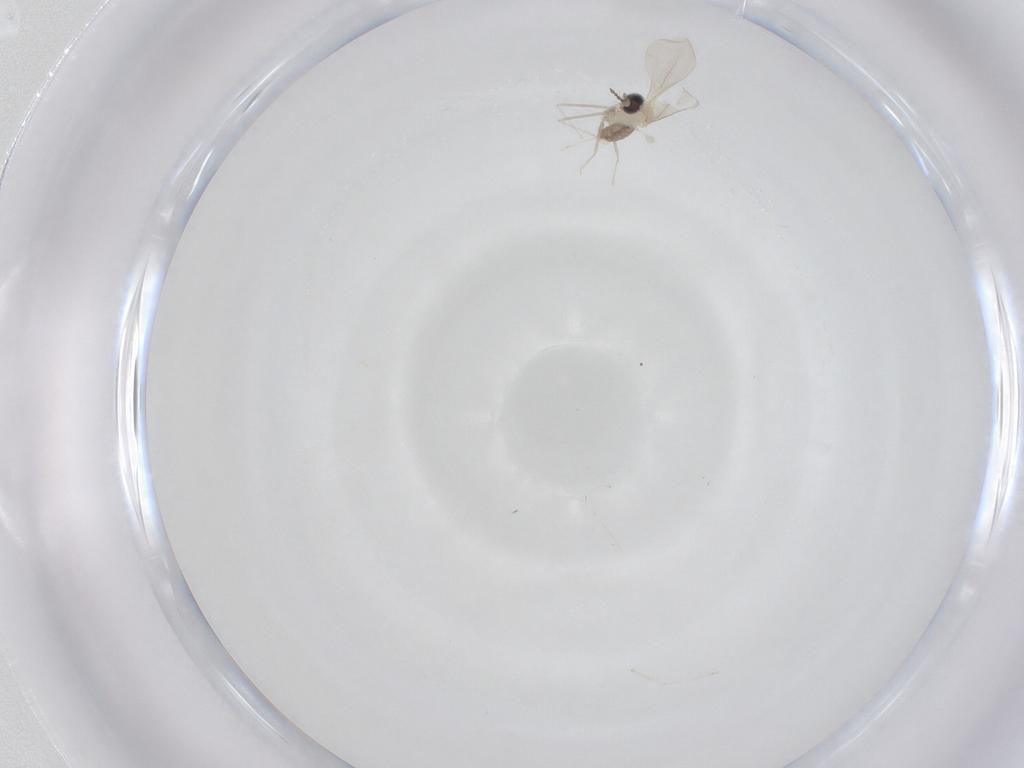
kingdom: Animalia
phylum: Arthropoda
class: Insecta
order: Diptera
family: Cecidomyiidae
